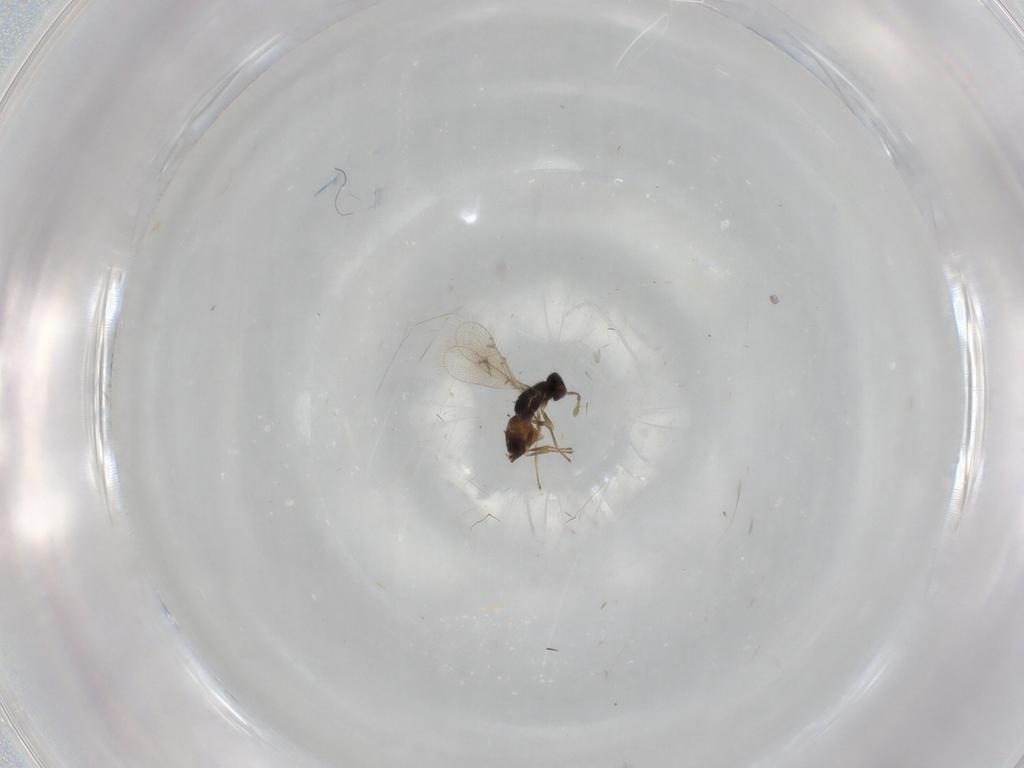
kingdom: Animalia
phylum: Arthropoda
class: Insecta
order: Hymenoptera
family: Eulophidae
